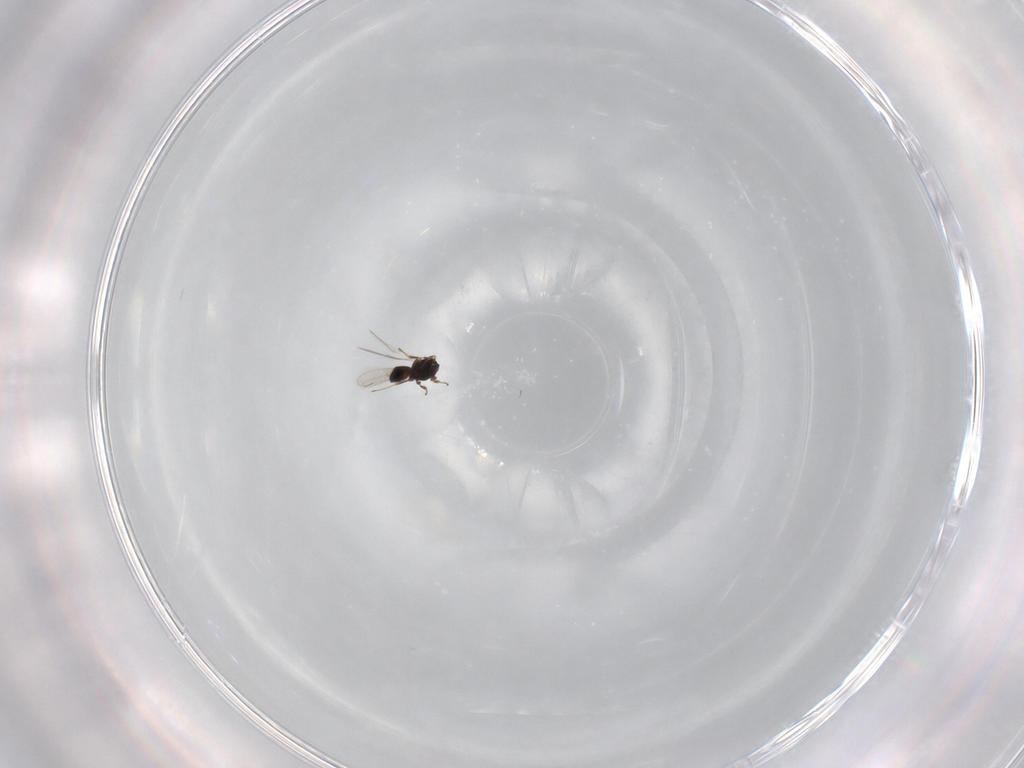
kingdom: Animalia
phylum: Arthropoda
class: Insecta
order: Hymenoptera
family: Scelionidae
